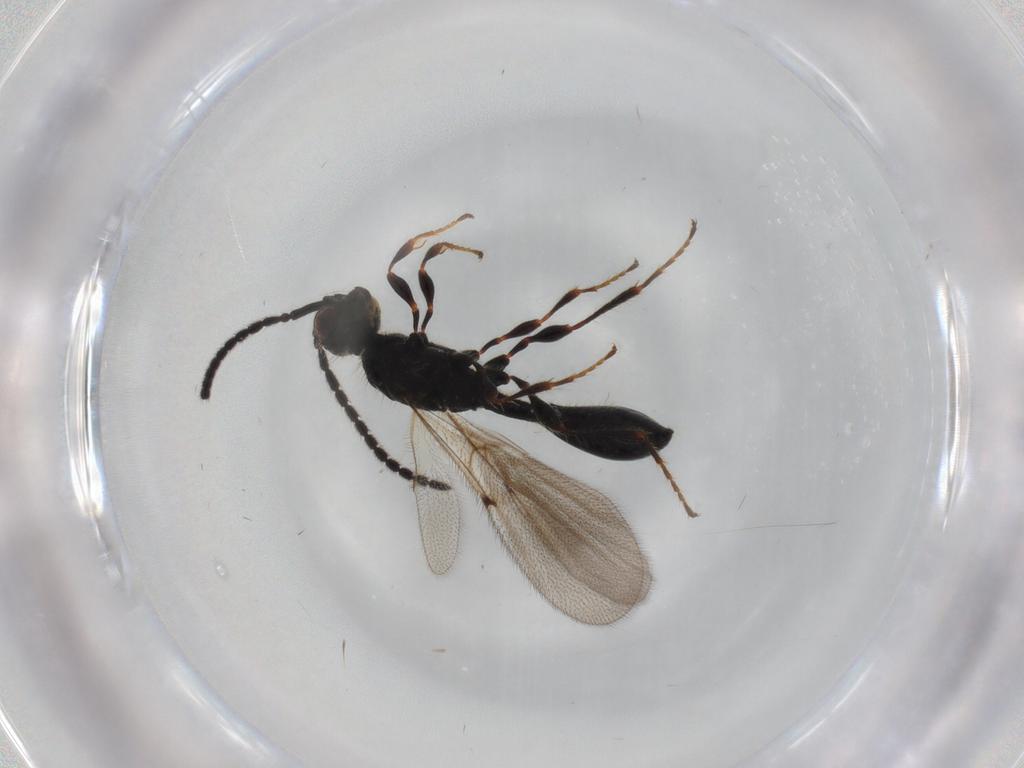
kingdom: Animalia
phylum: Arthropoda
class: Insecta
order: Hymenoptera
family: Diapriidae
